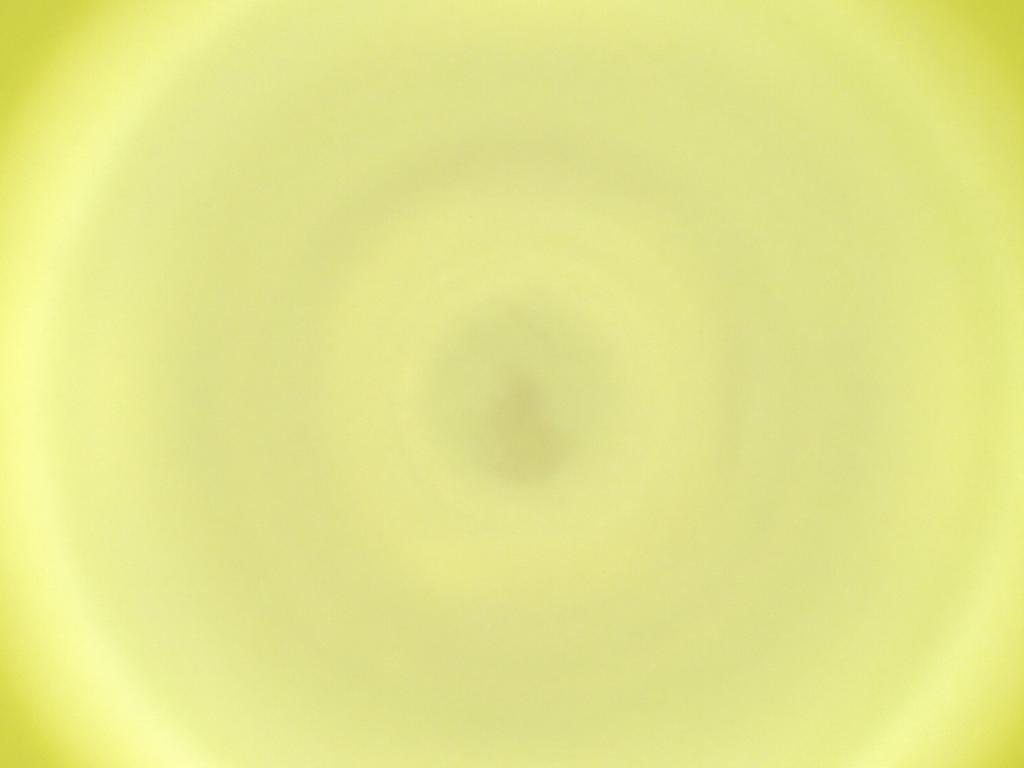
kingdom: Animalia
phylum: Arthropoda
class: Insecta
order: Diptera
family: Cecidomyiidae
